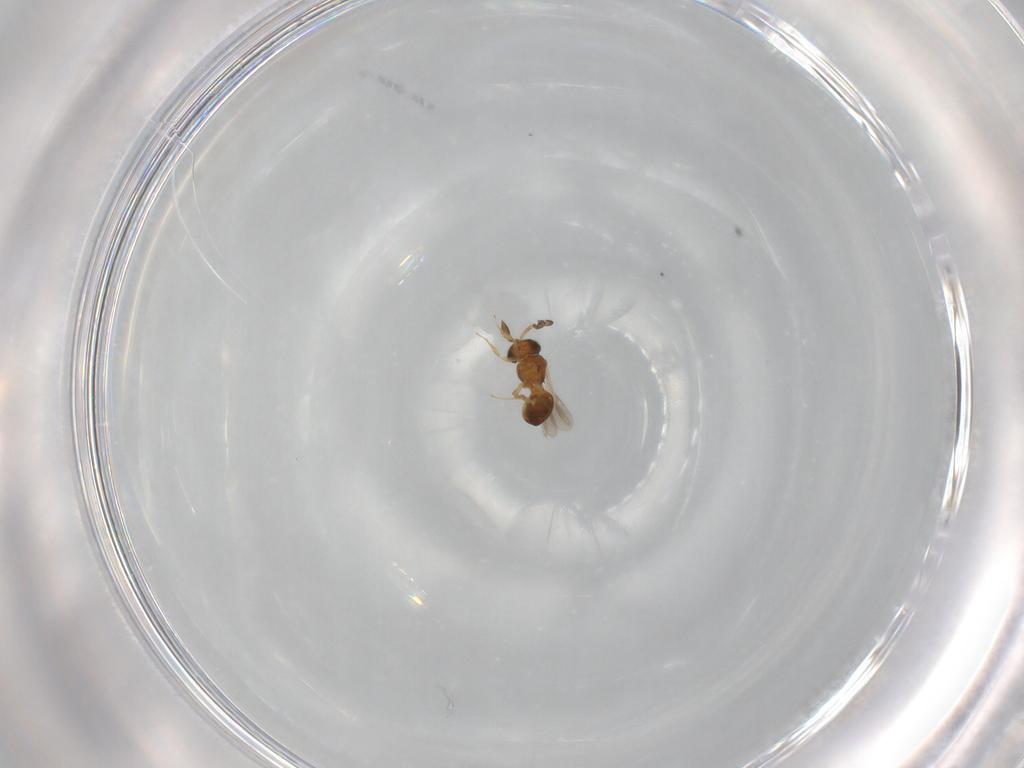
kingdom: Animalia
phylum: Arthropoda
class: Insecta
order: Hymenoptera
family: Scelionidae
